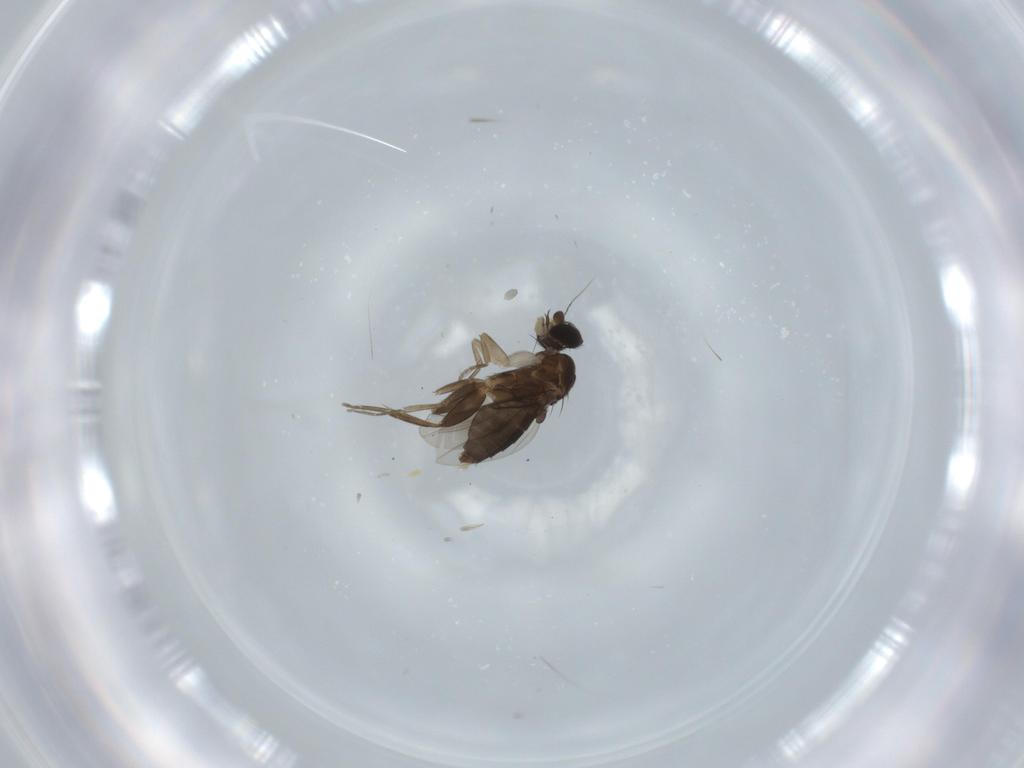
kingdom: Animalia
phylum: Arthropoda
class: Insecta
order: Diptera
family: Phoridae
